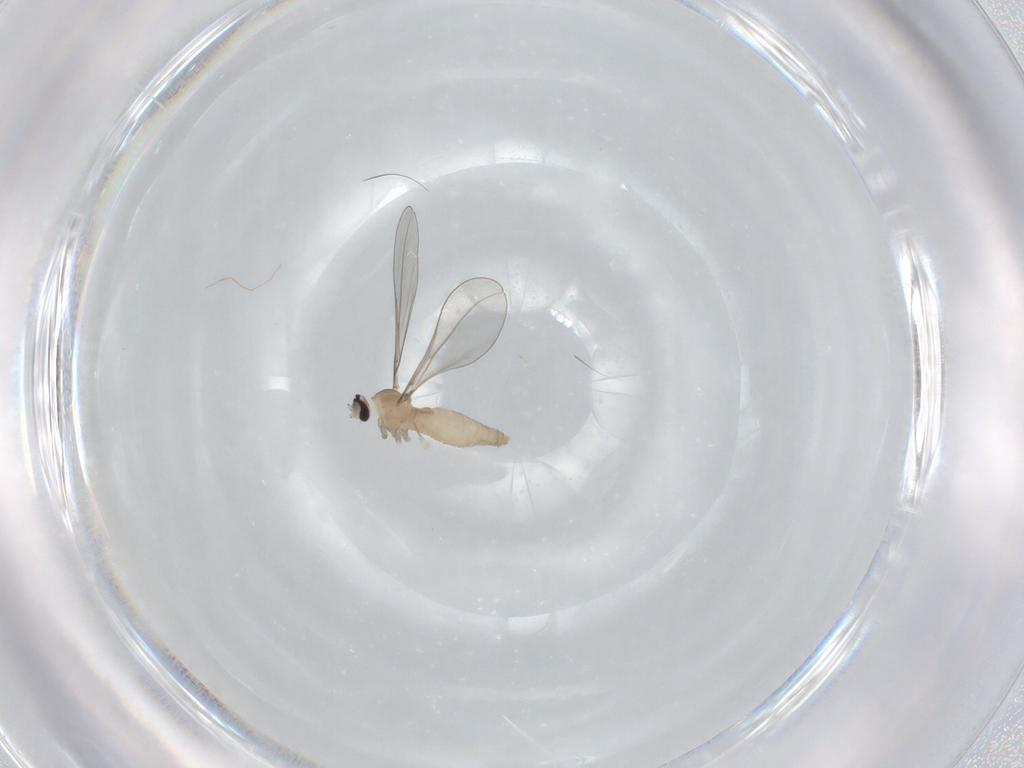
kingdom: Animalia
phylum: Arthropoda
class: Insecta
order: Diptera
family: Cecidomyiidae
